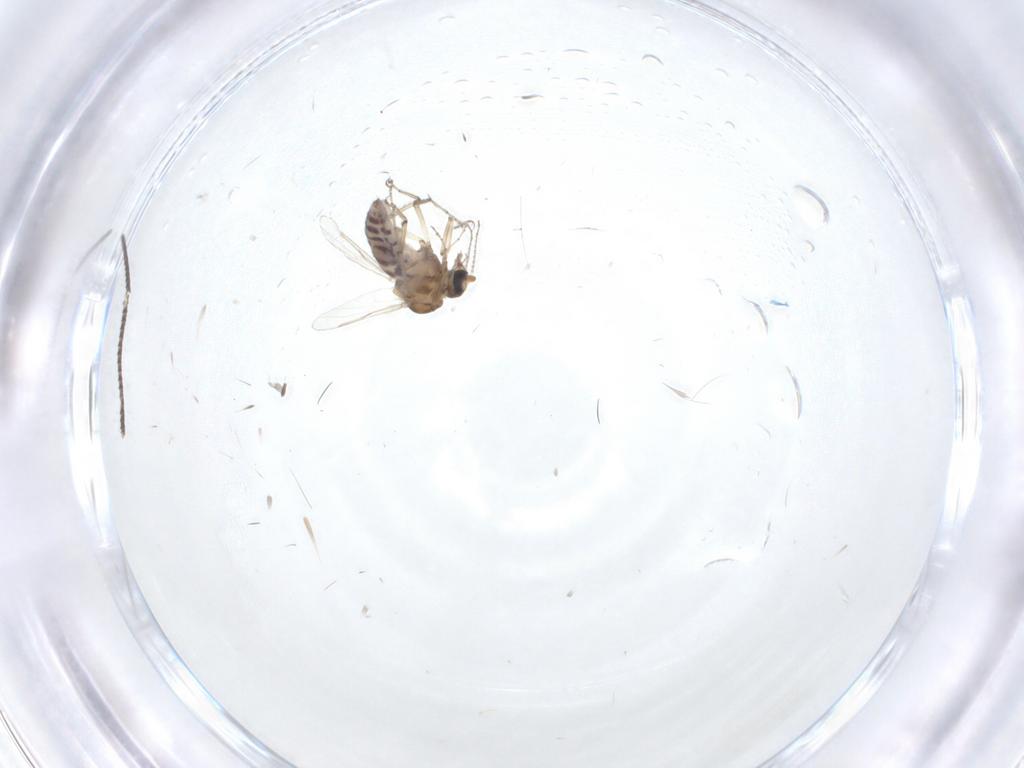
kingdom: Animalia
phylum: Arthropoda
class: Insecta
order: Diptera
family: Ceratopogonidae
